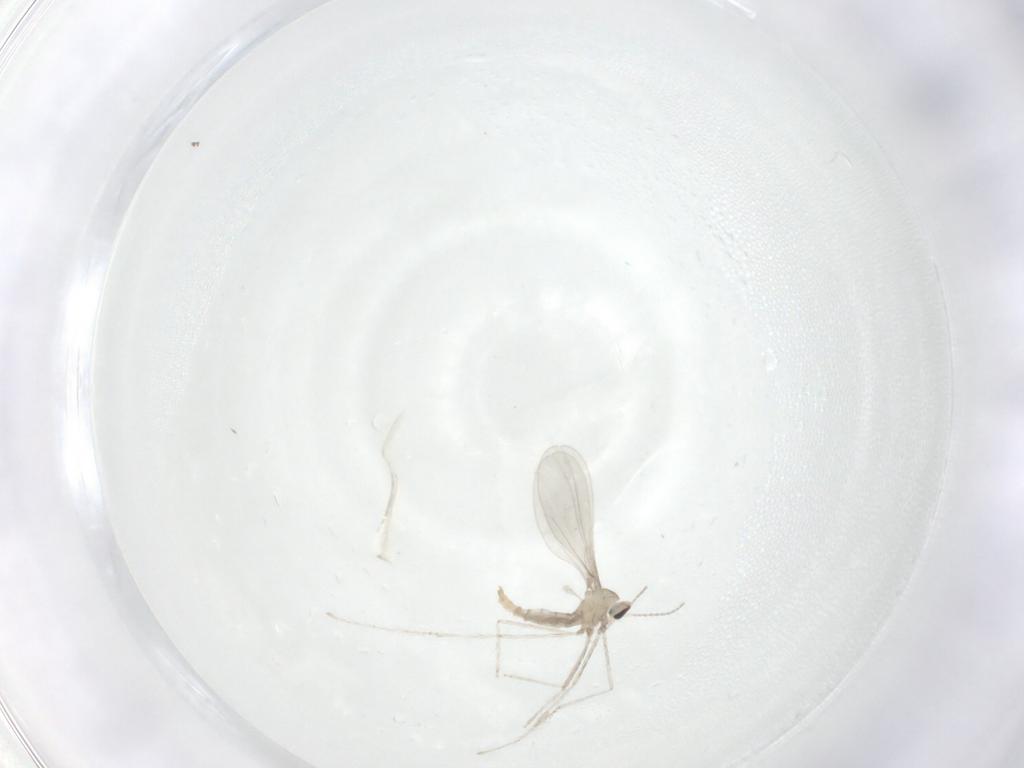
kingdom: Animalia
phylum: Arthropoda
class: Insecta
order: Diptera
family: Cecidomyiidae
